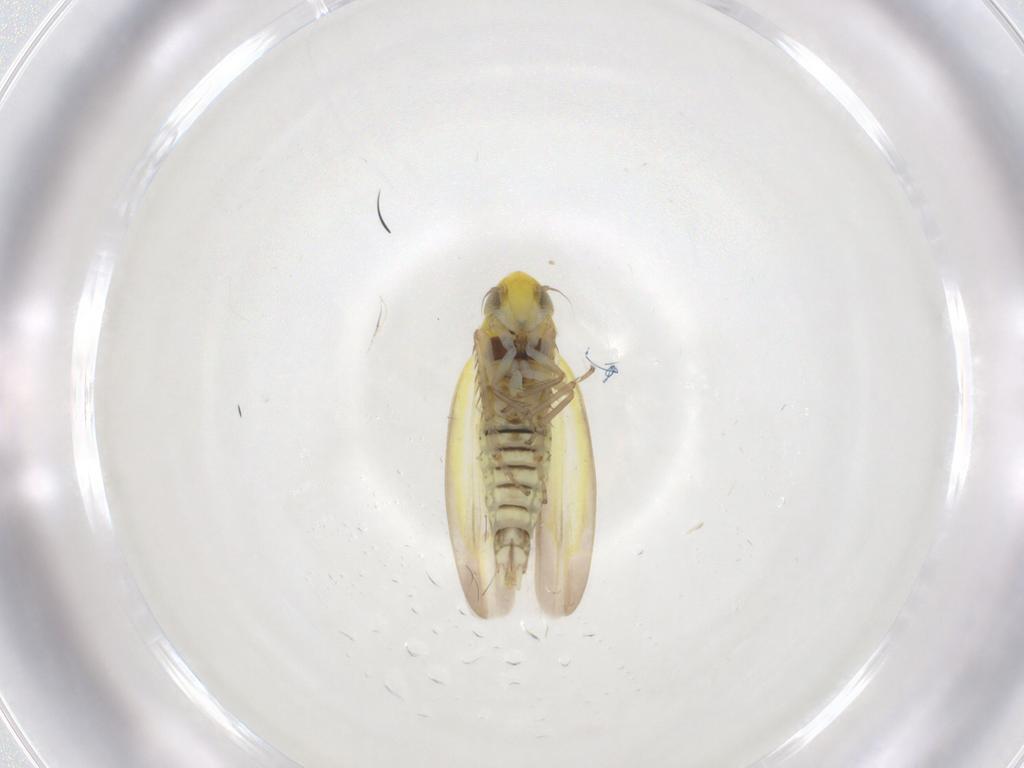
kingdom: Animalia
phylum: Arthropoda
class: Insecta
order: Hemiptera
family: Cicadellidae
